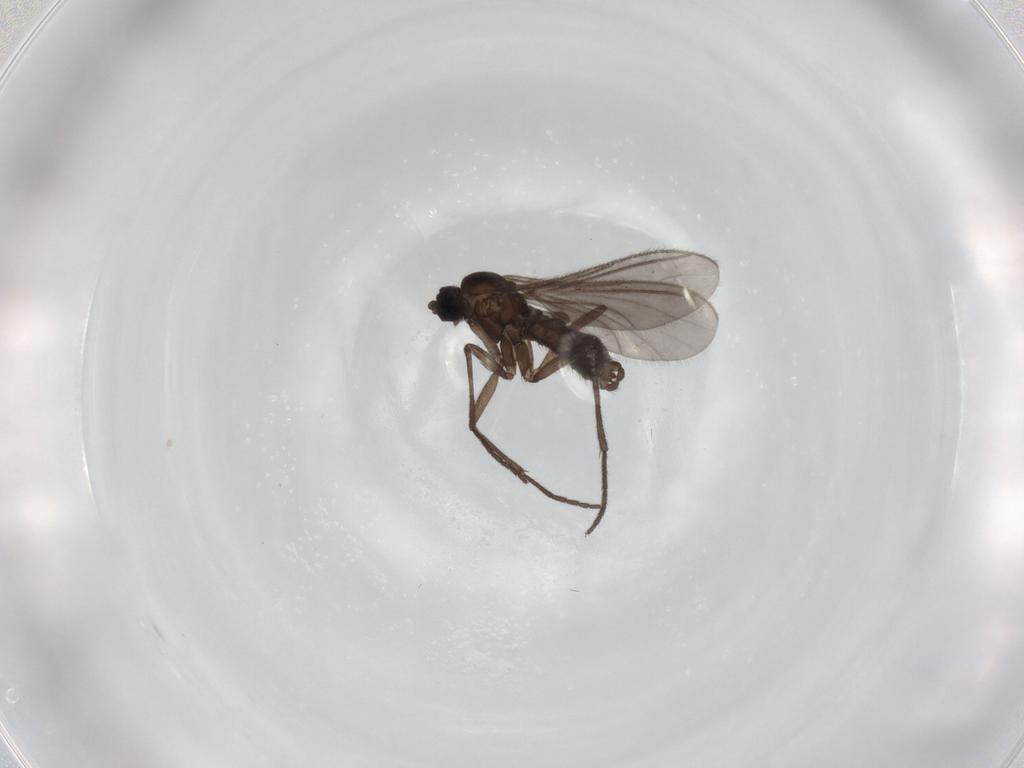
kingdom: Animalia
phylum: Arthropoda
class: Insecta
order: Diptera
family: Sciaridae
